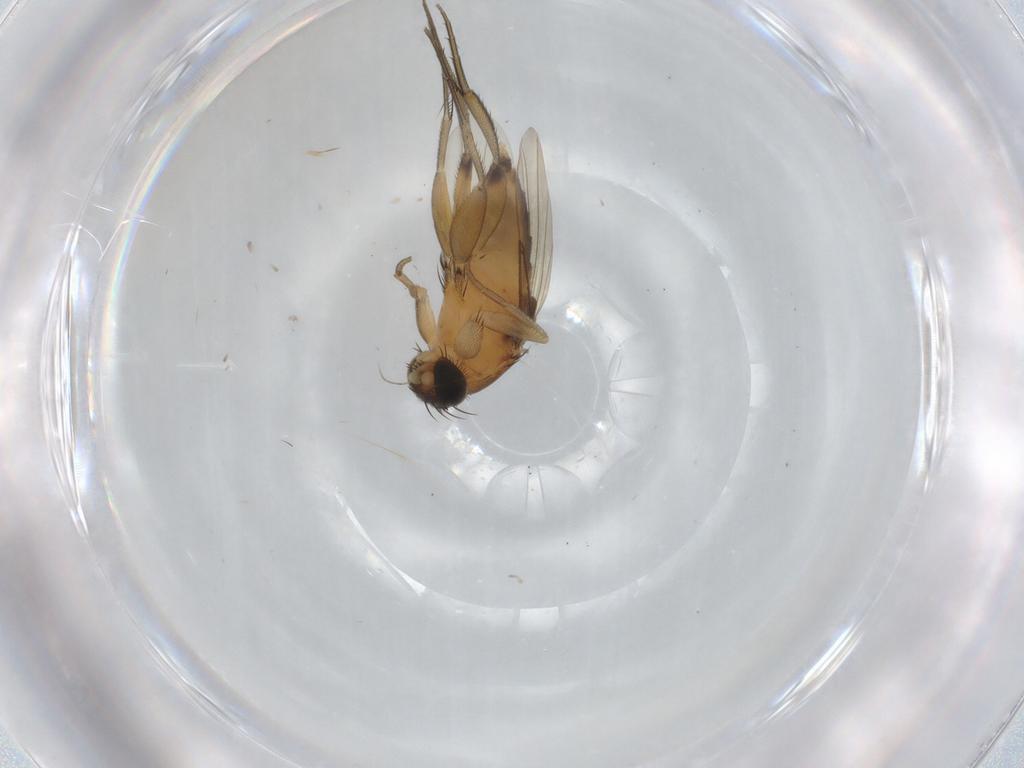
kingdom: Animalia
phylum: Arthropoda
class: Insecta
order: Diptera
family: Phoridae
